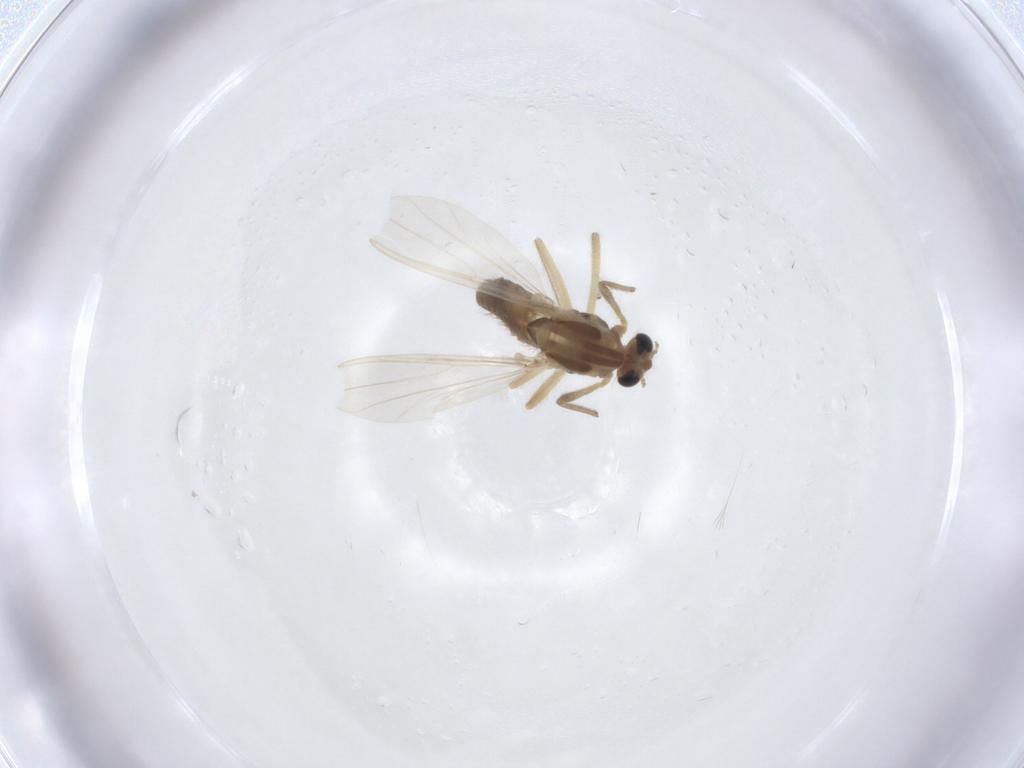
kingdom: Animalia
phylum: Arthropoda
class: Insecta
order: Diptera
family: Chironomidae
